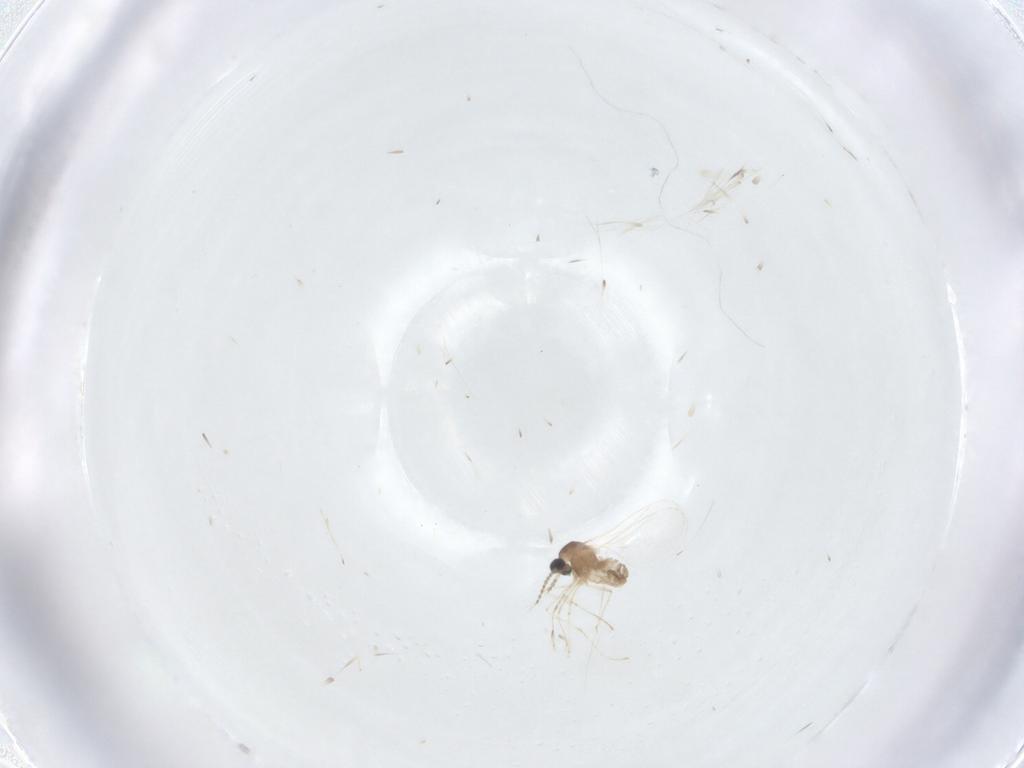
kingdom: Animalia
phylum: Arthropoda
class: Insecta
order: Diptera
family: Cecidomyiidae
